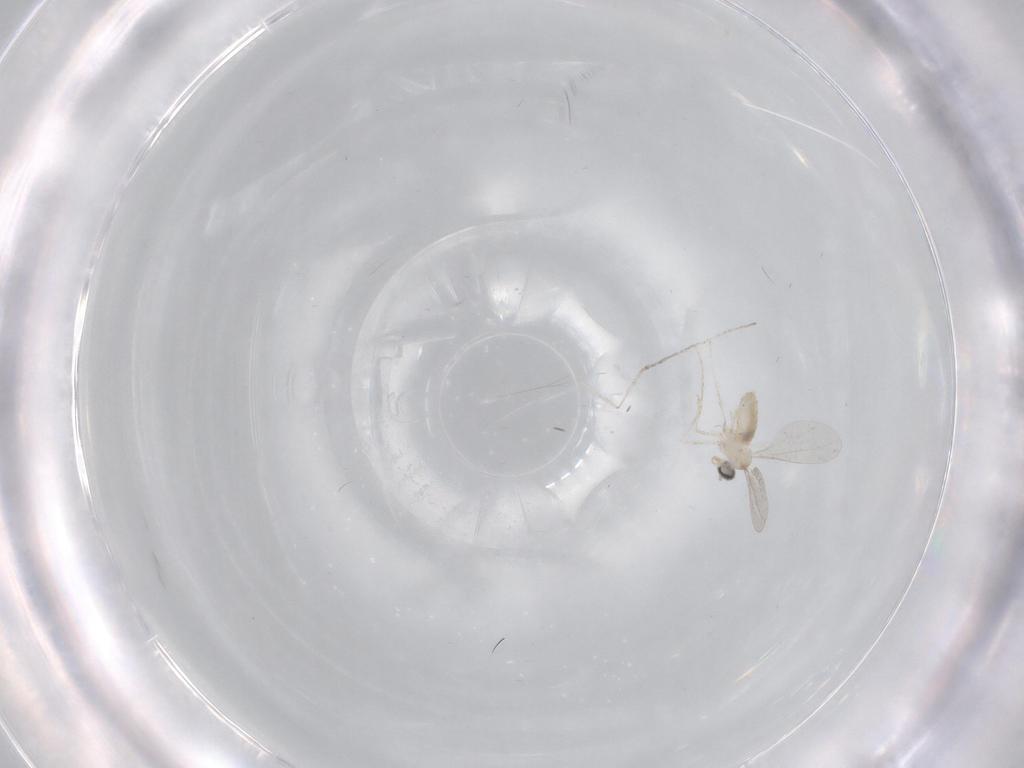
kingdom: Animalia
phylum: Arthropoda
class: Insecta
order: Diptera
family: Cecidomyiidae
